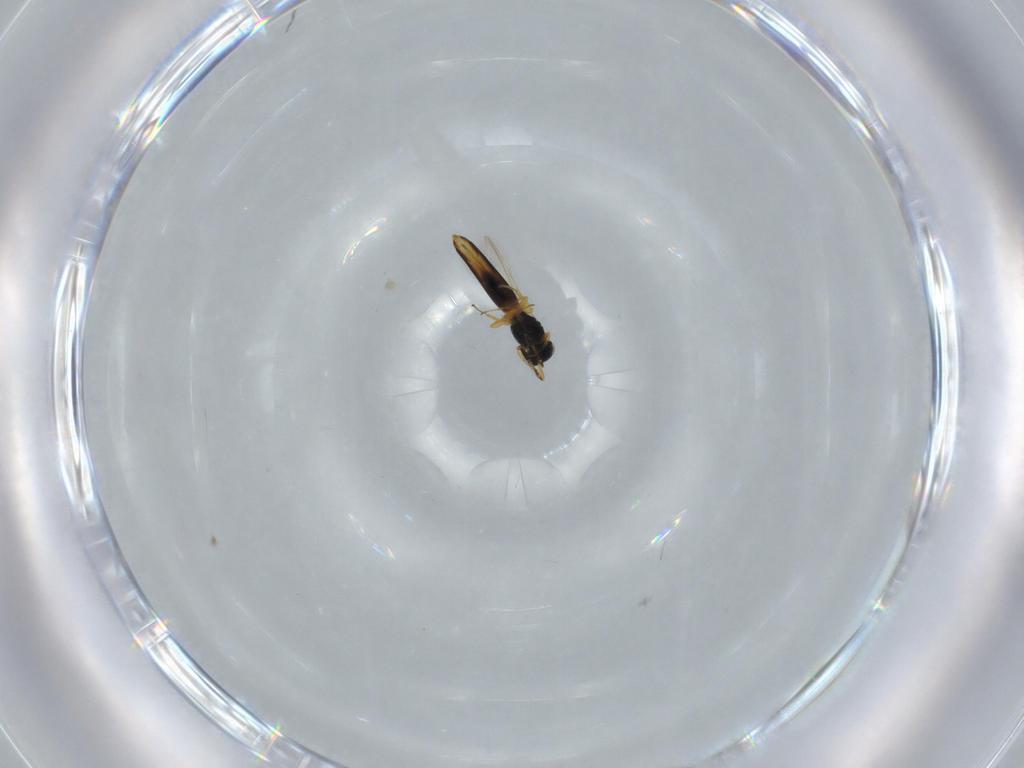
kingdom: Animalia
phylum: Arthropoda
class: Insecta
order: Hymenoptera
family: Scelionidae
